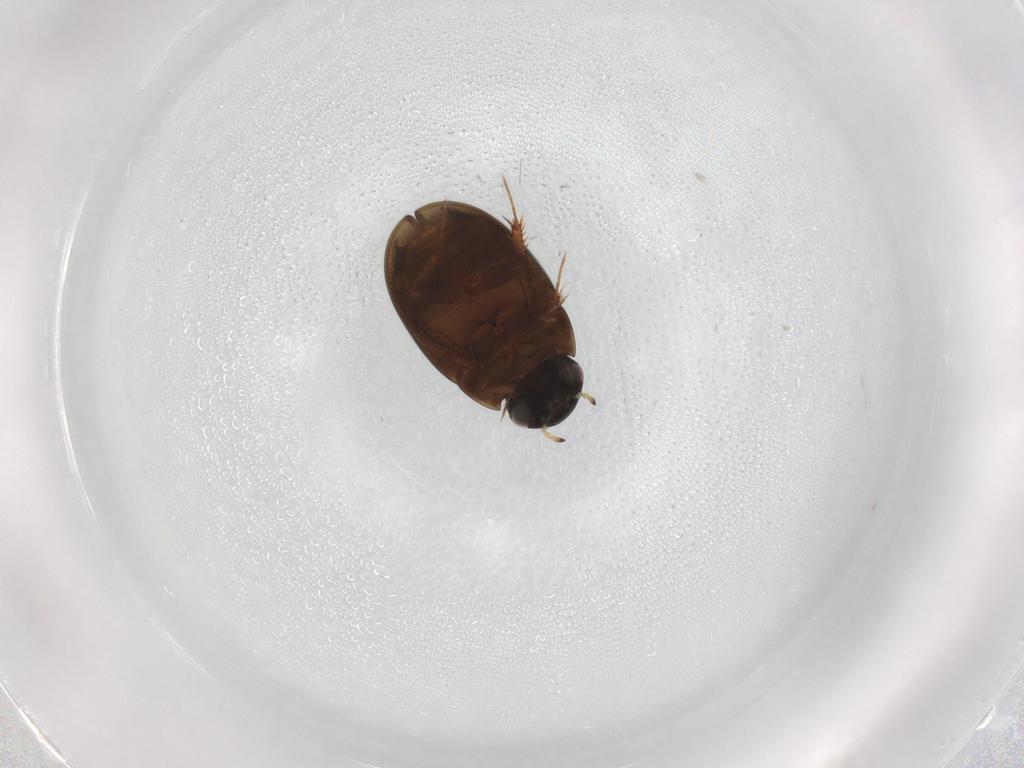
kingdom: Animalia
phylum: Arthropoda
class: Insecta
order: Coleoptera
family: Hydrophilidae
